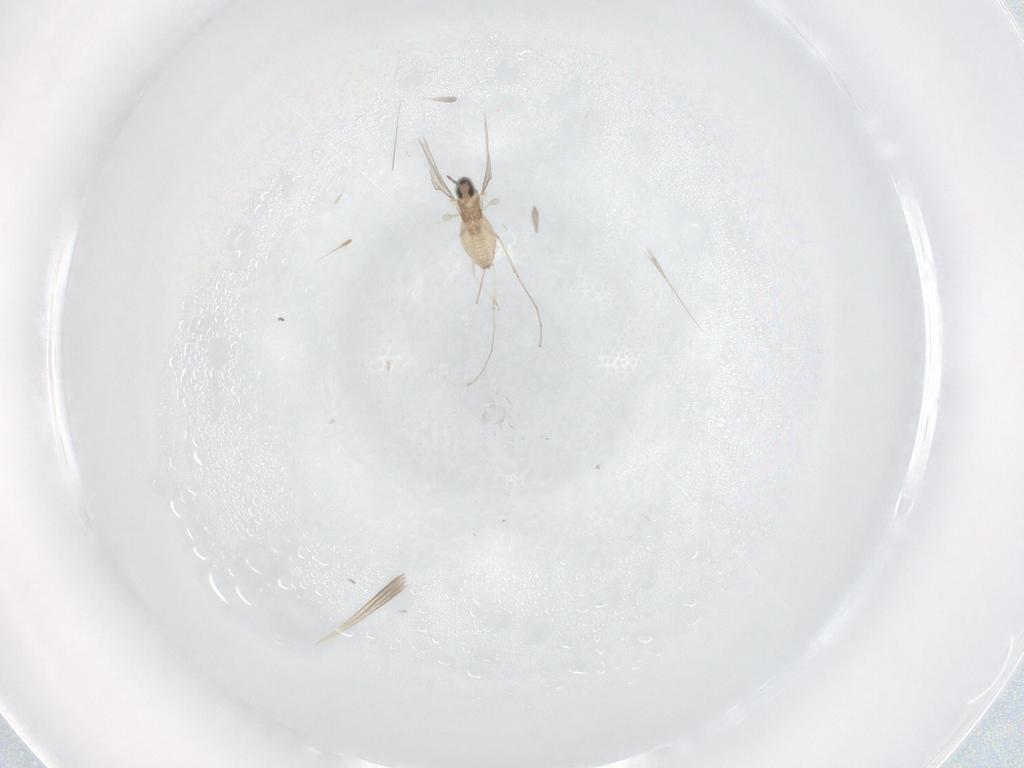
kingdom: Animalia
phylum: Arthropoda
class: Insecta
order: Diptera
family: Cecidomyiidae
